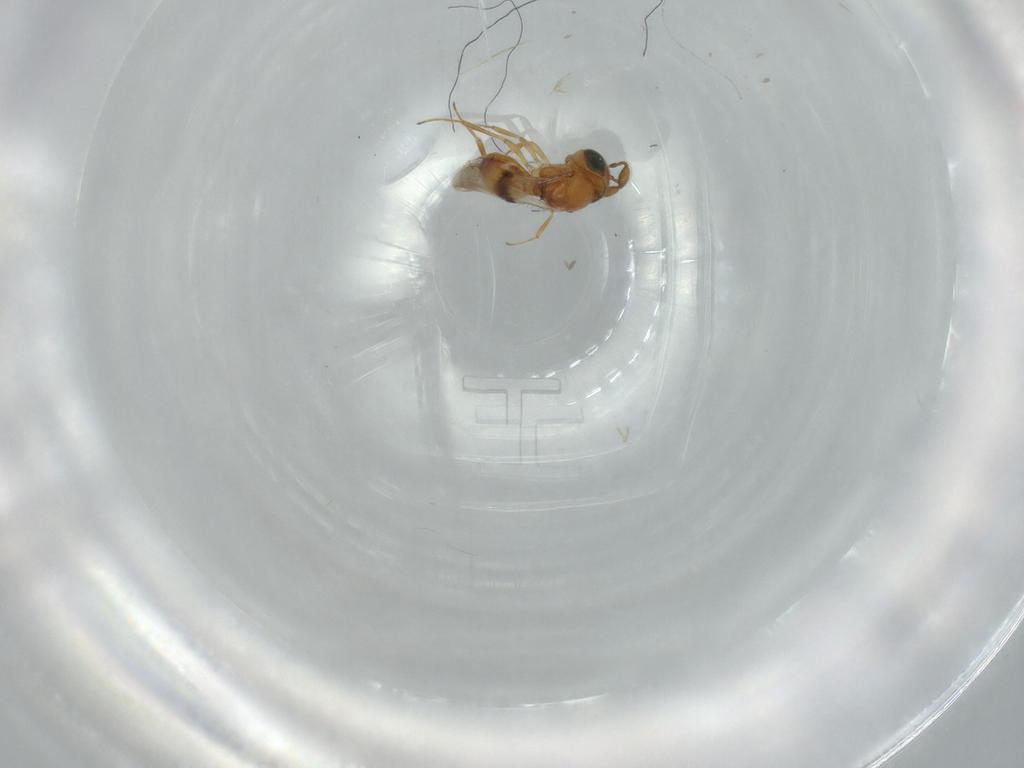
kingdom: Animalia
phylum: Arthropoda
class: Insecta
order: Hymenoptera
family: Scelionidae
